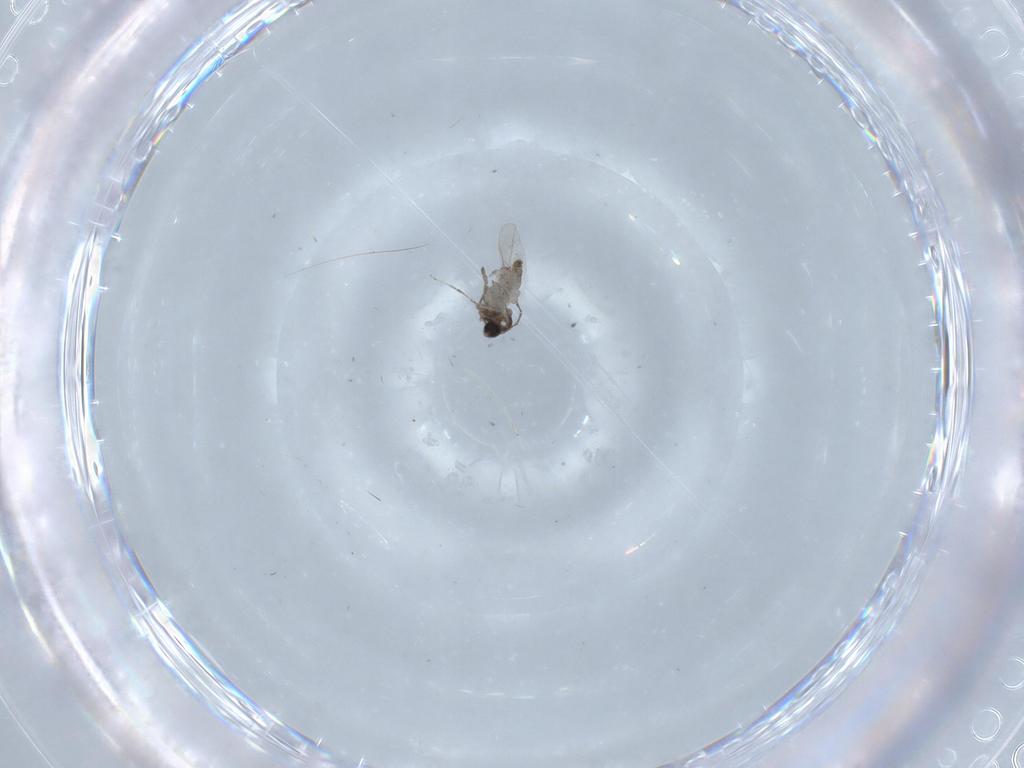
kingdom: Animalia
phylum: Arthropoda
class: Insecta
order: Diptera
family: Cecidomyiidae
